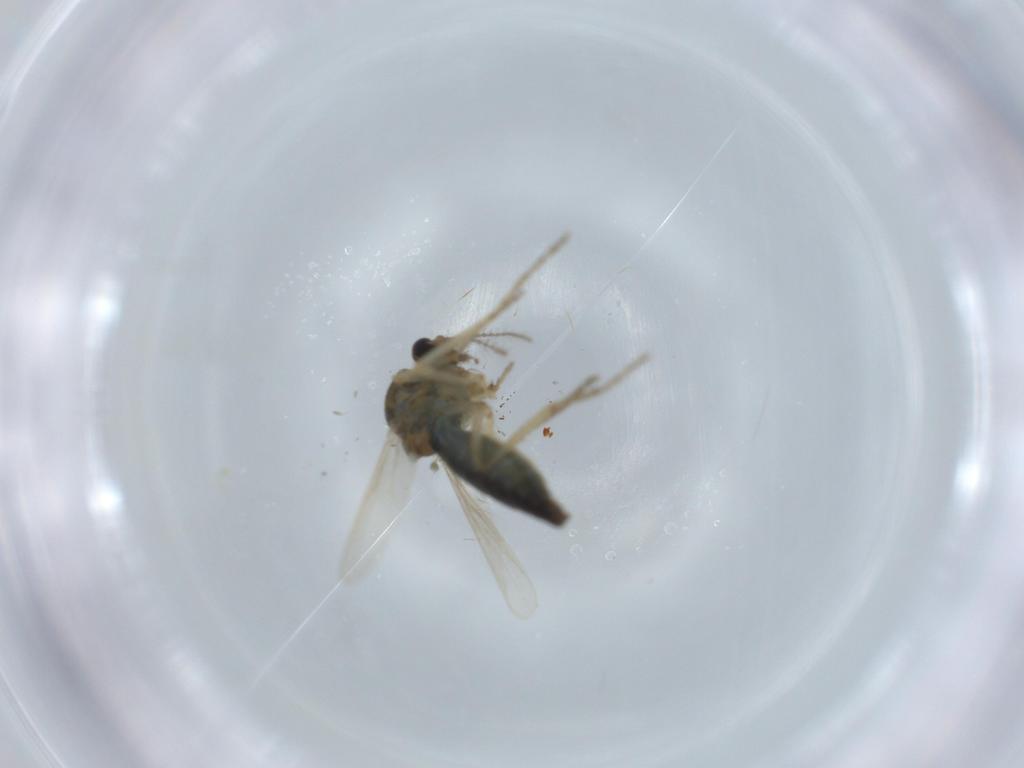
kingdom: Animalia
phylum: Arthropoda
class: Insecta
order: Diptera
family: Ceratopogonidae
